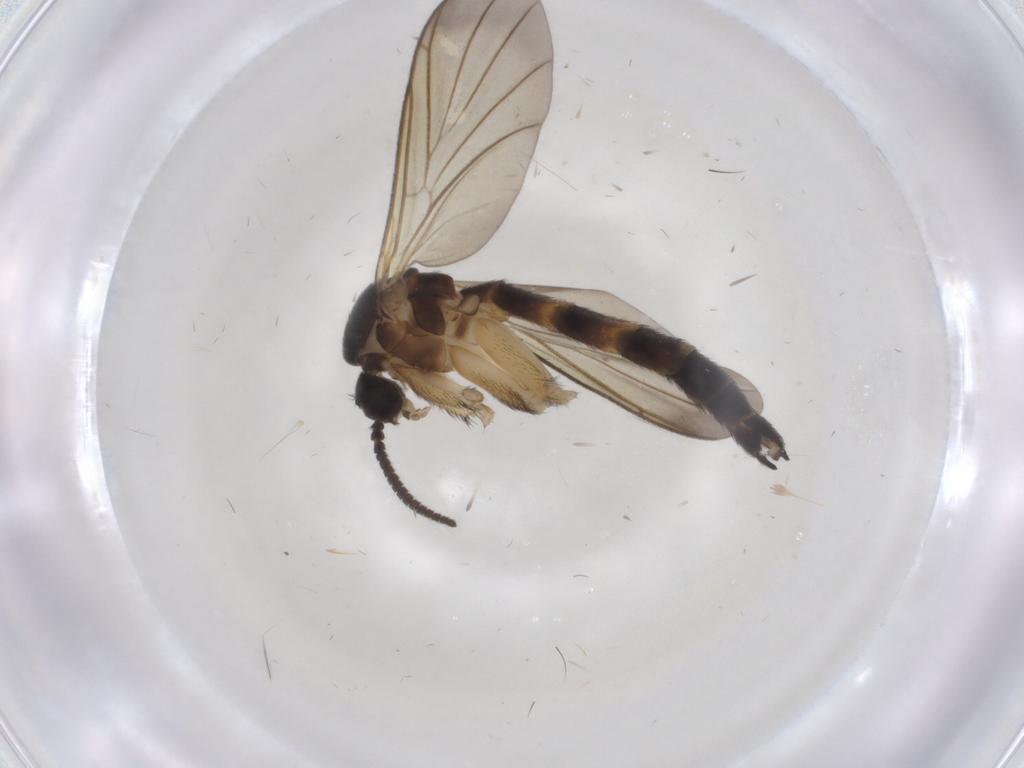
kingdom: Animalia
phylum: Arthropoda
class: Insecta
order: Diptera
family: Keroplatidae
